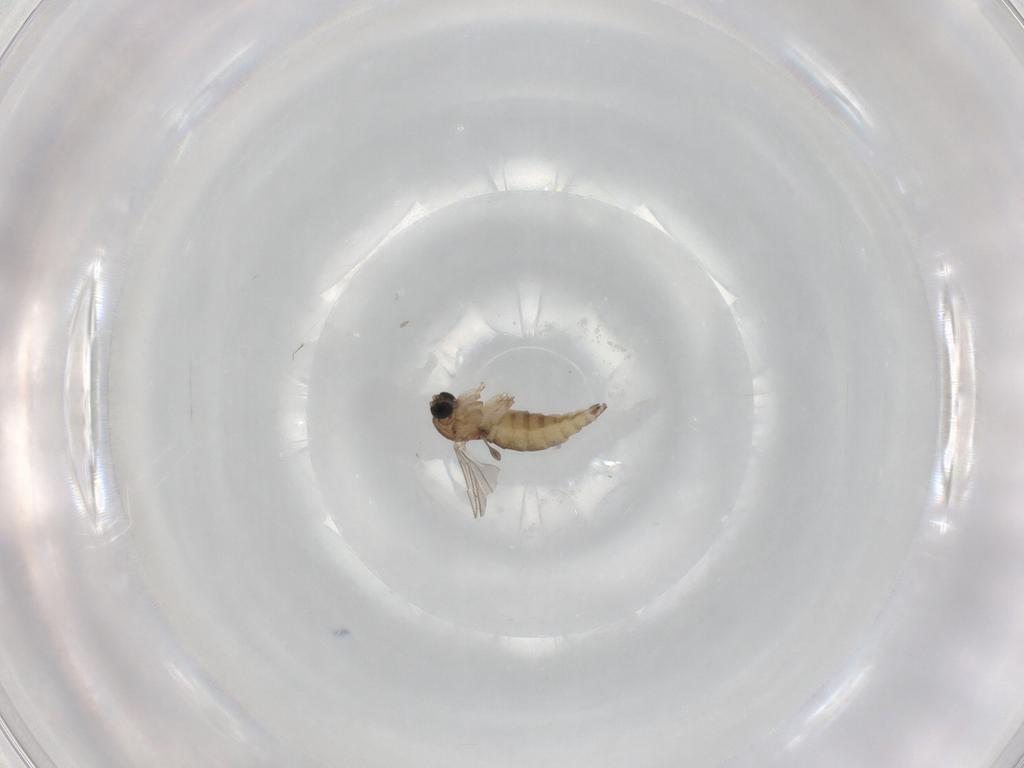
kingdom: Animalia
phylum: Arthropoda
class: Insecta
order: Diptera
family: Sciaridae
